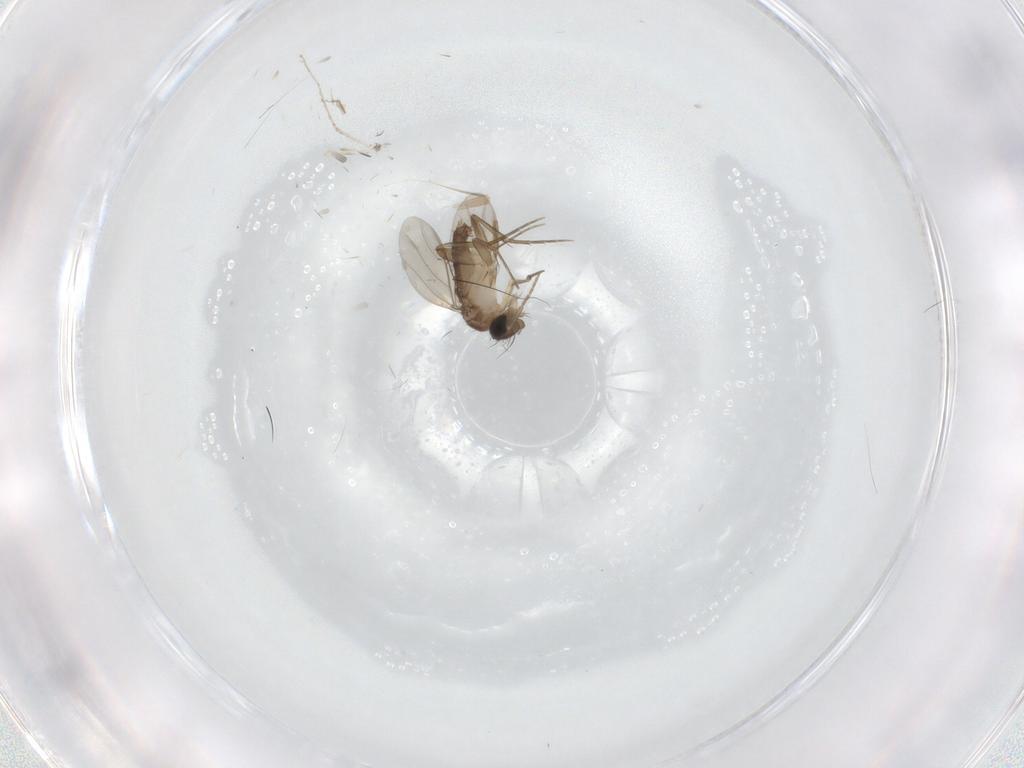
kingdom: Animalia
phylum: Arthropoda
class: Insecta
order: Diptera
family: Phoridae
